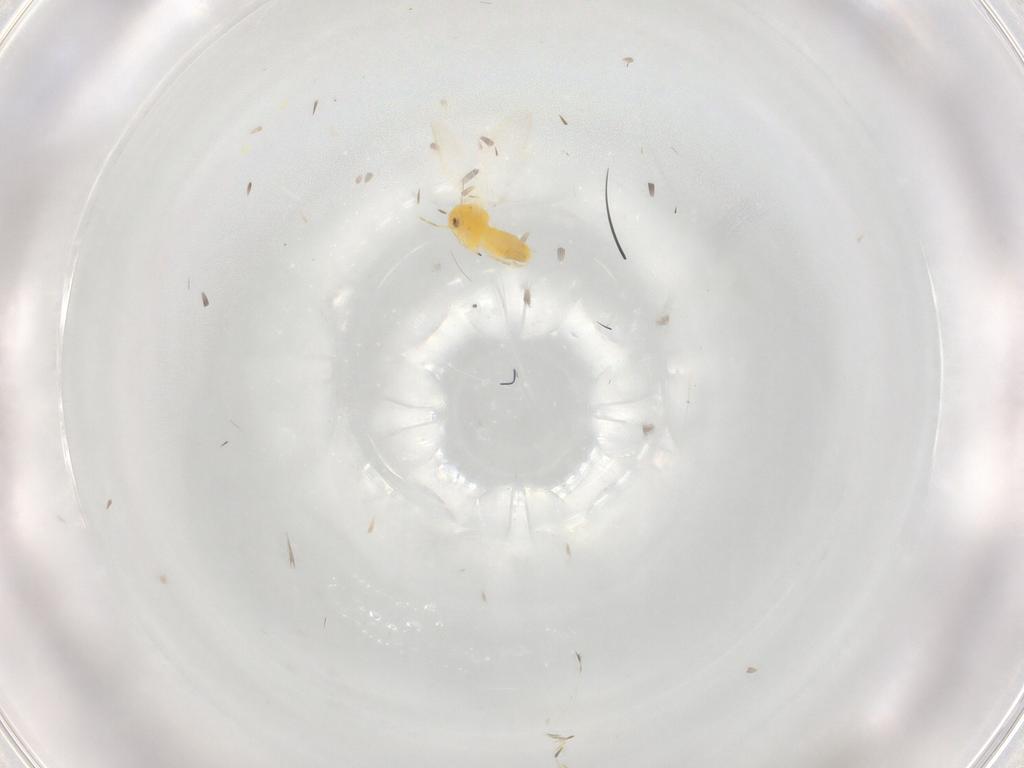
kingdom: Animalia
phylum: Arthropoda
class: Insecta
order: Hemiptera
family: Aleyrodidae
